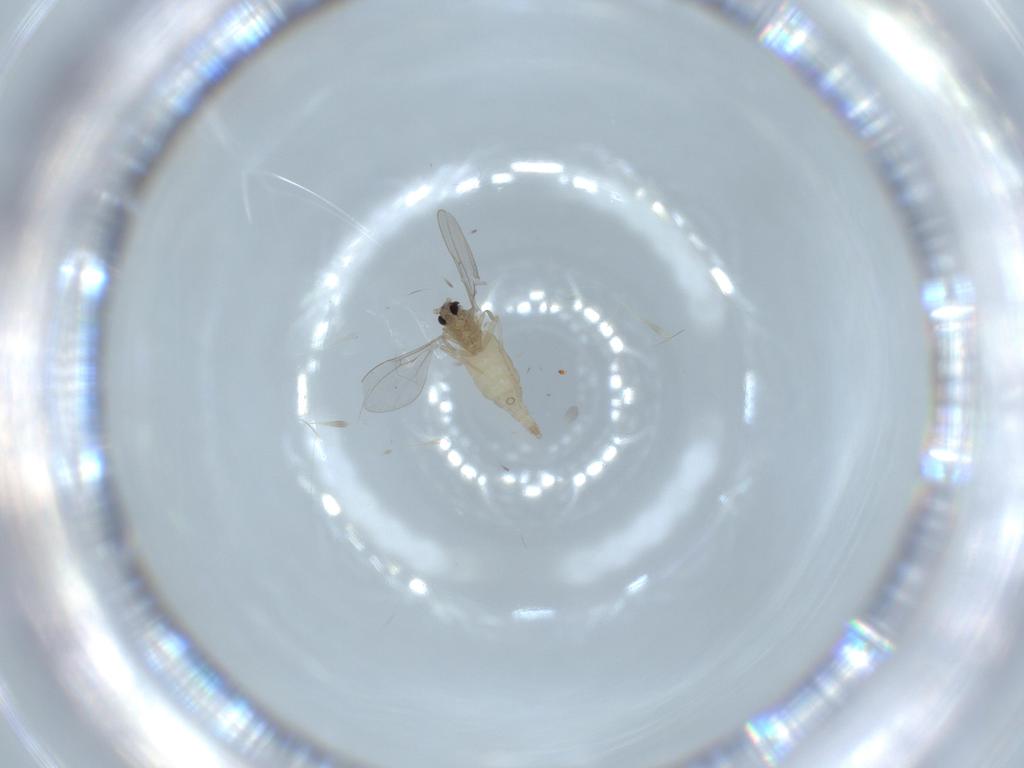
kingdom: Animalia
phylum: Arthropoda
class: Insecta
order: Diptera
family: Cecidomyiidae
